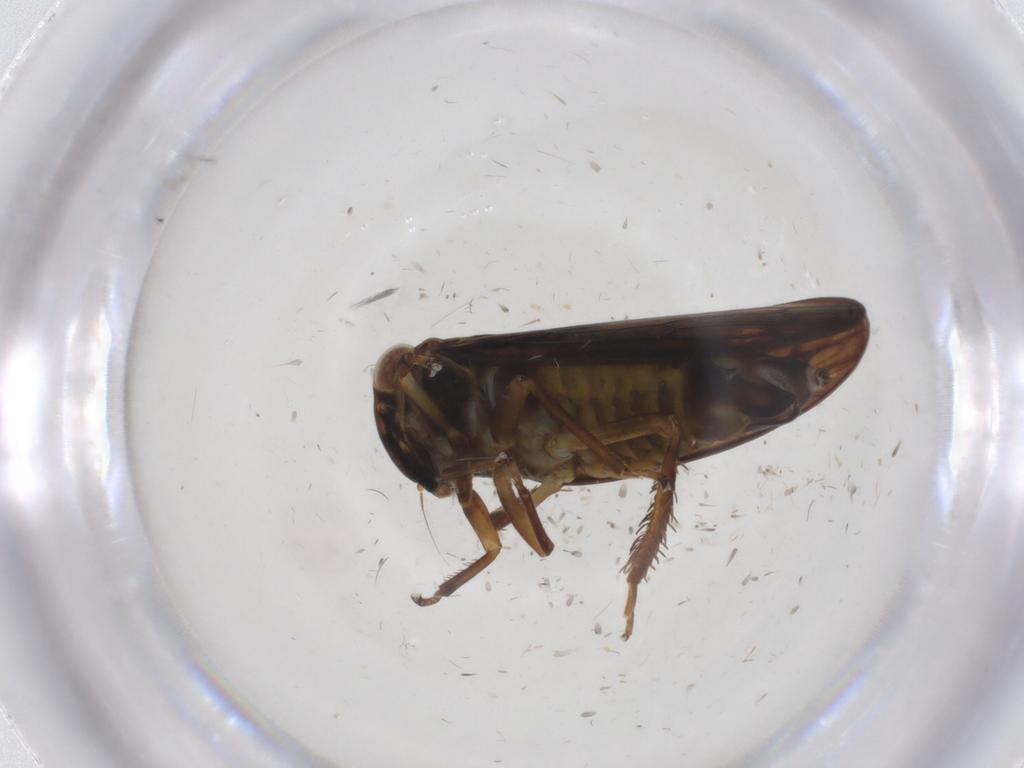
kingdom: Animalia
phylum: Arthropoda
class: Insecta
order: Hemiptera
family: Cicadellidae
